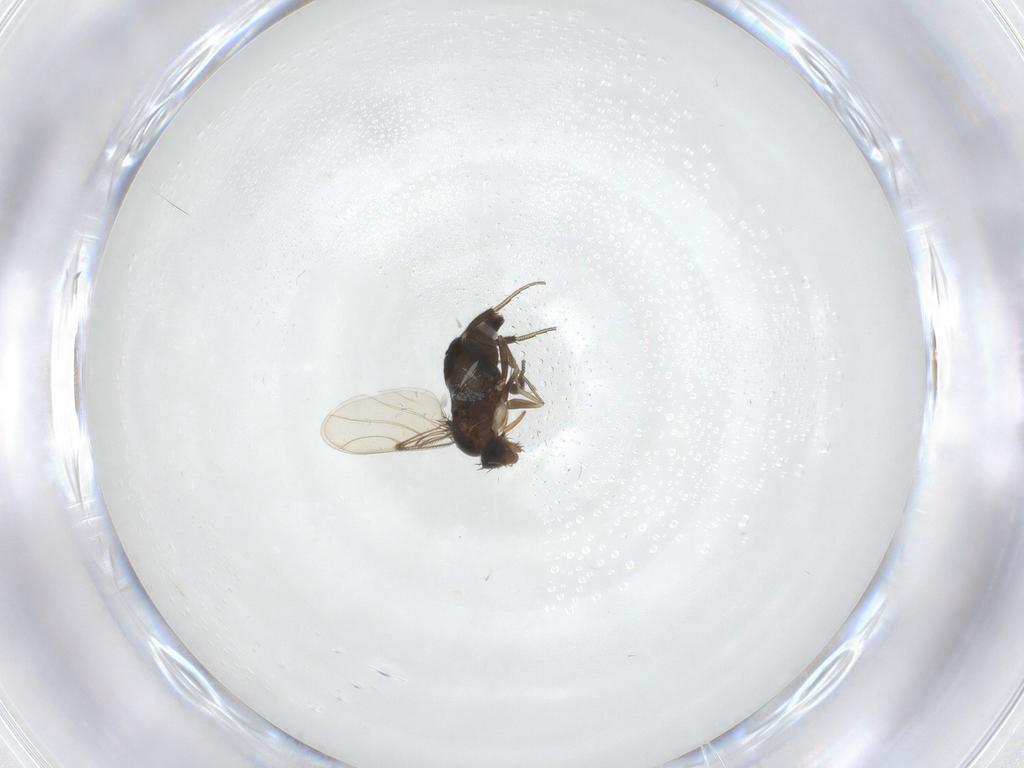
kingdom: Animalia
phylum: Arthropoda
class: Insecta
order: Diptera
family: Phoridae
